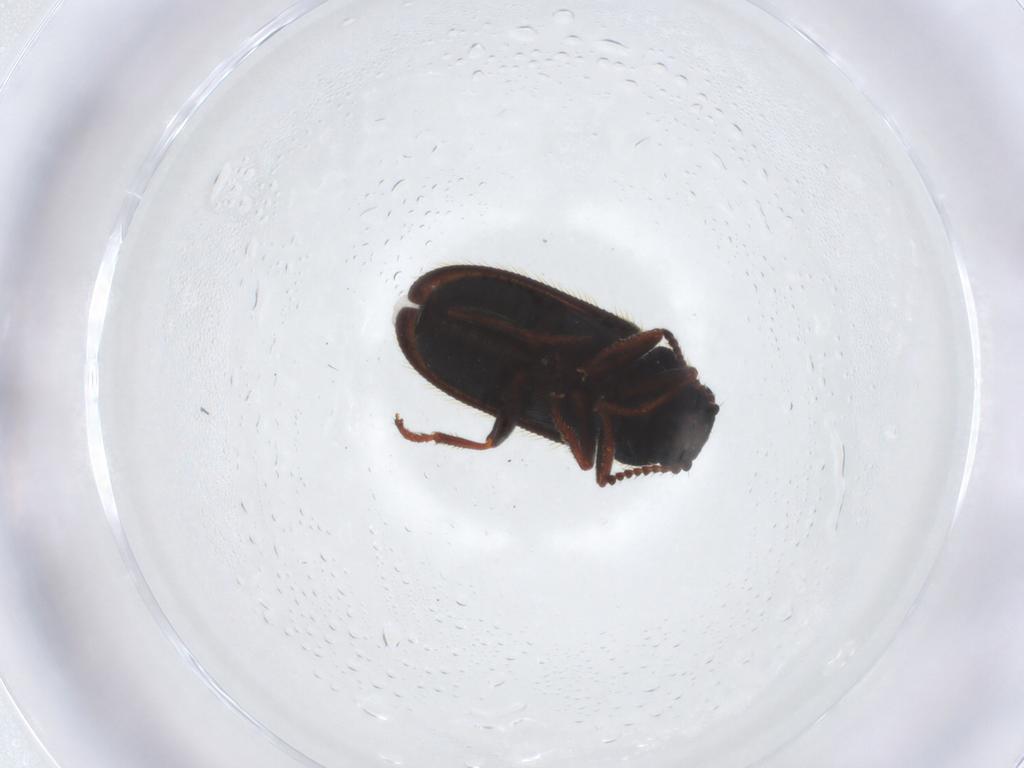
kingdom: Animalia
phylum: Arthropoda
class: Insecta
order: Coleoptera
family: Dasytidae
